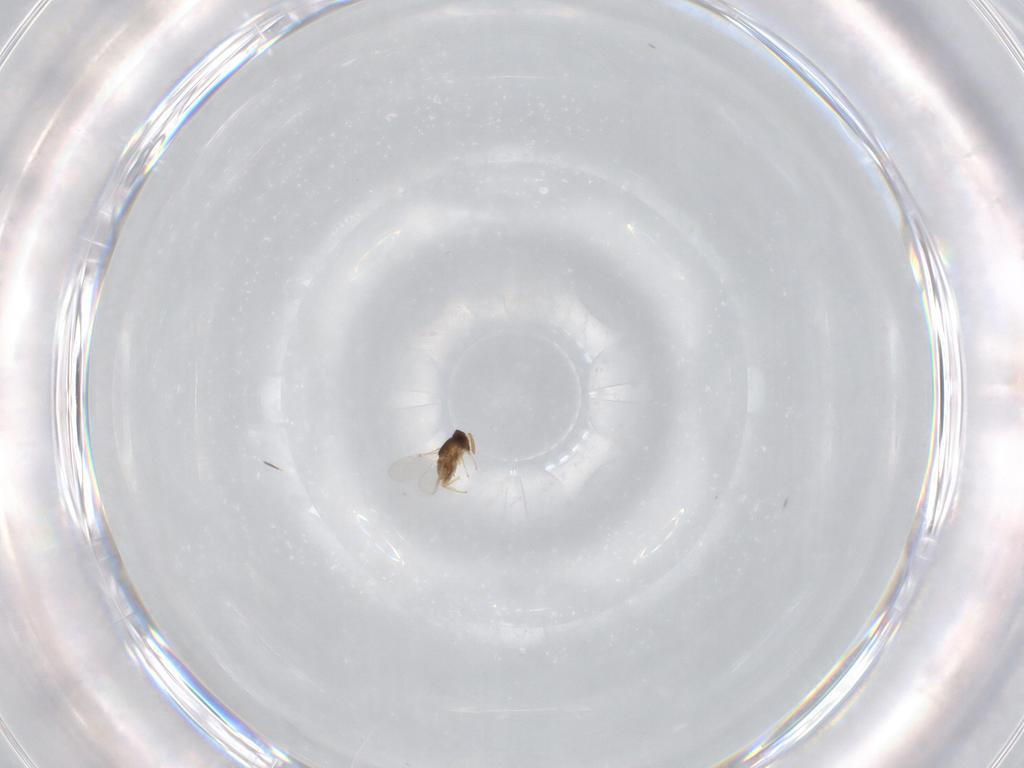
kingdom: Animalia
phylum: Arthropoda
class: Insecta
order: Hymenoptera
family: Encyrtidae
